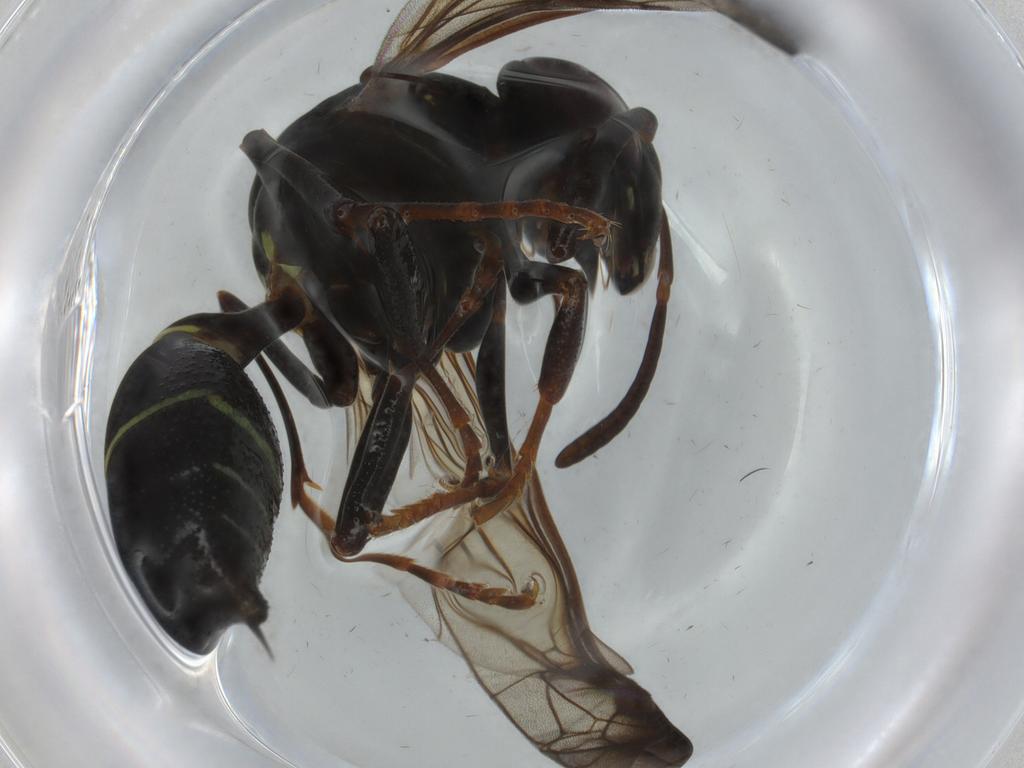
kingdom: Animalia
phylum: Arthropoda
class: Insecta
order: Hymenoptera
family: Vespidae
